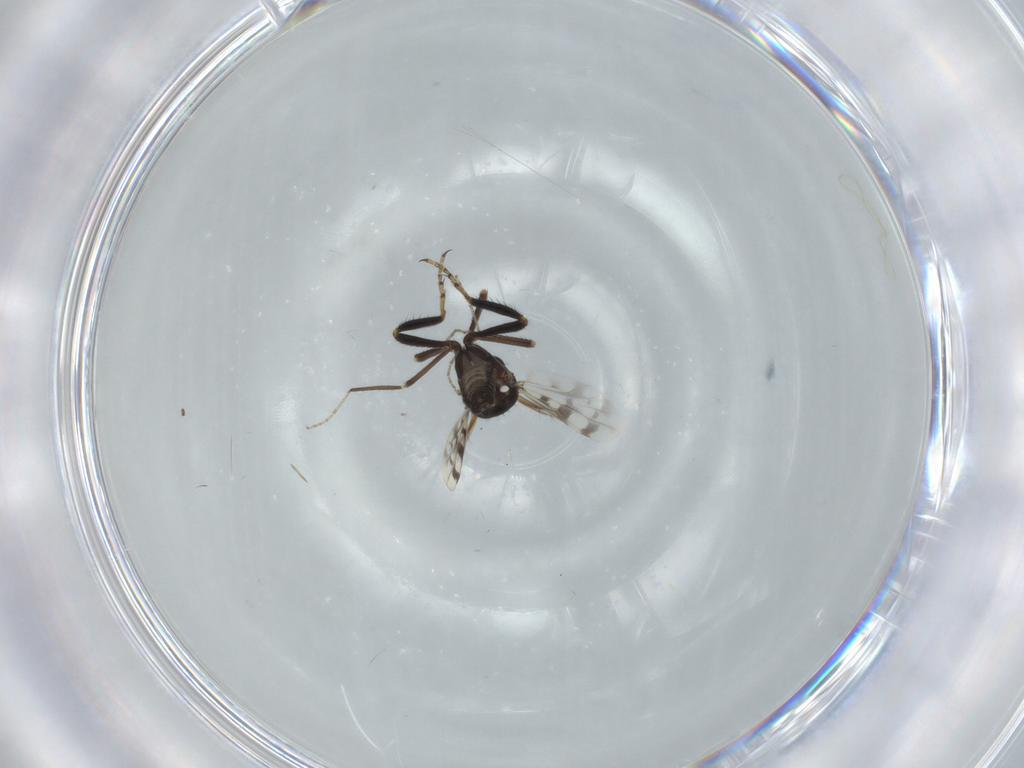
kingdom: Animalia
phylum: Arthropoda
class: Insecta
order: Diptera
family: Ceratopogonidae
